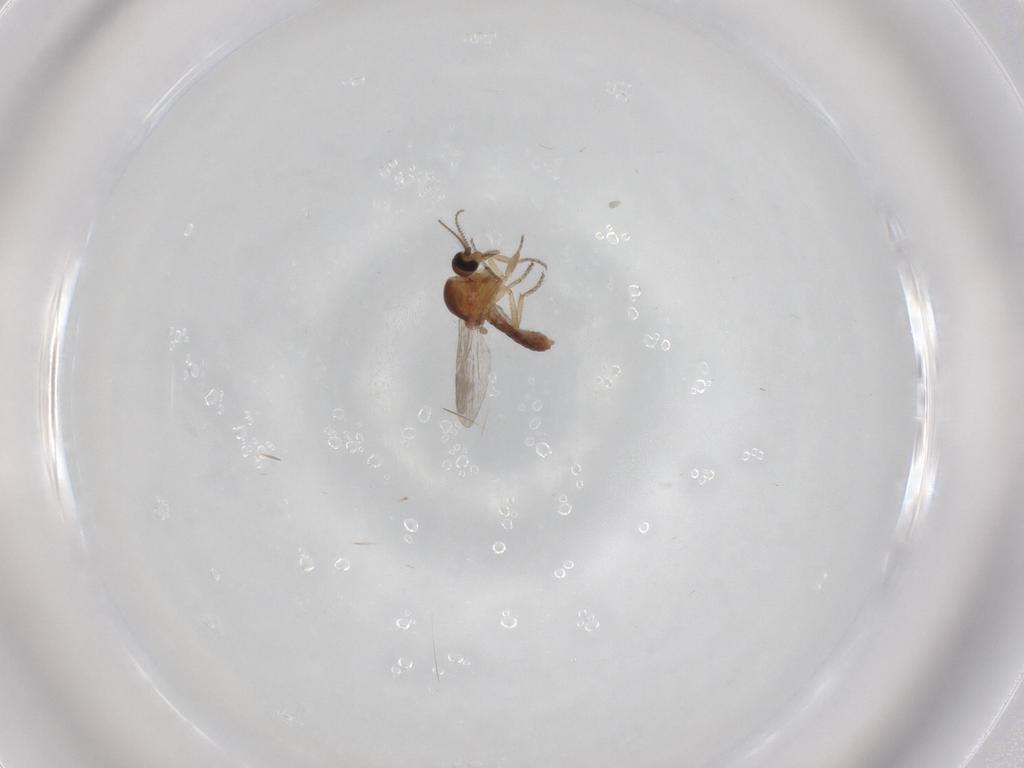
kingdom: Animalia
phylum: Arthropoda
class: Insecta
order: Diptera
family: Ceratopogonidae
